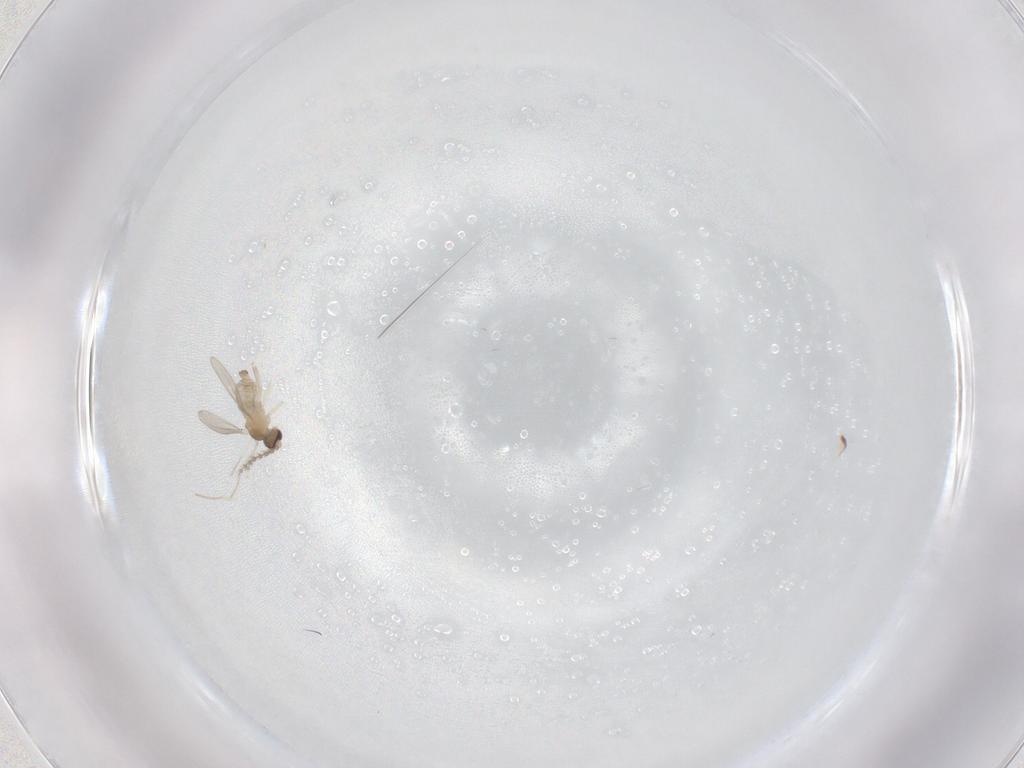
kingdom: Animalia
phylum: Arthropoda
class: Insecta
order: Diptera
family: Cecidomyiidae
